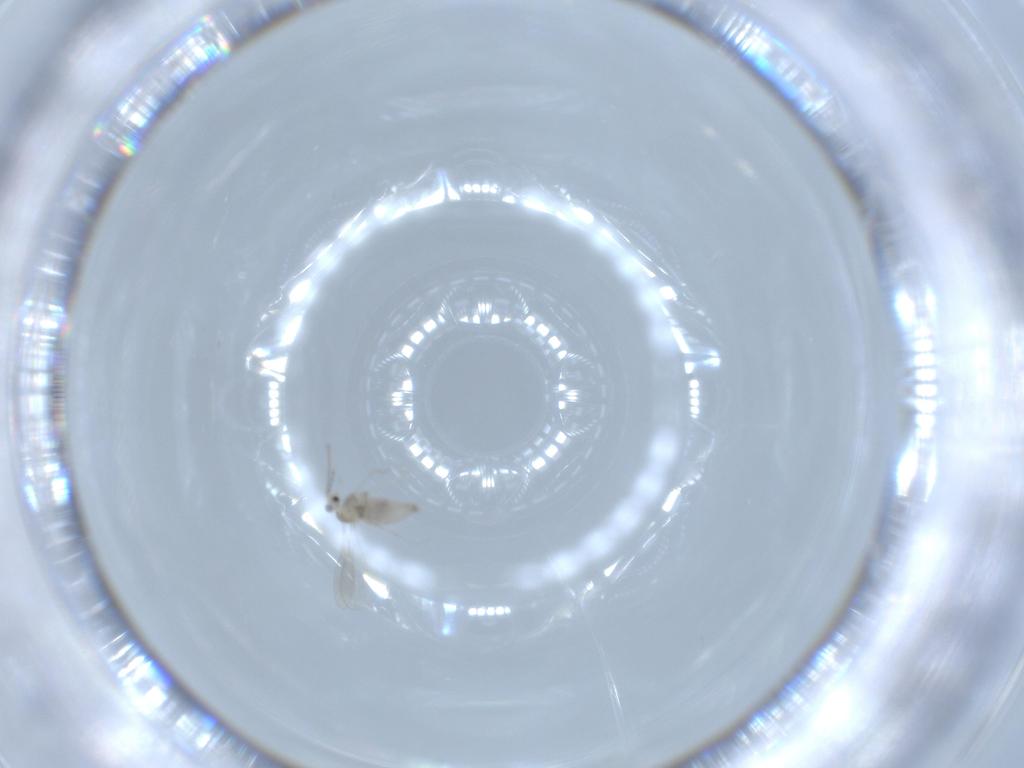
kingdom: Animalia
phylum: Arthropoda
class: Insecta
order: Diptera
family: Cecidomyiidae
